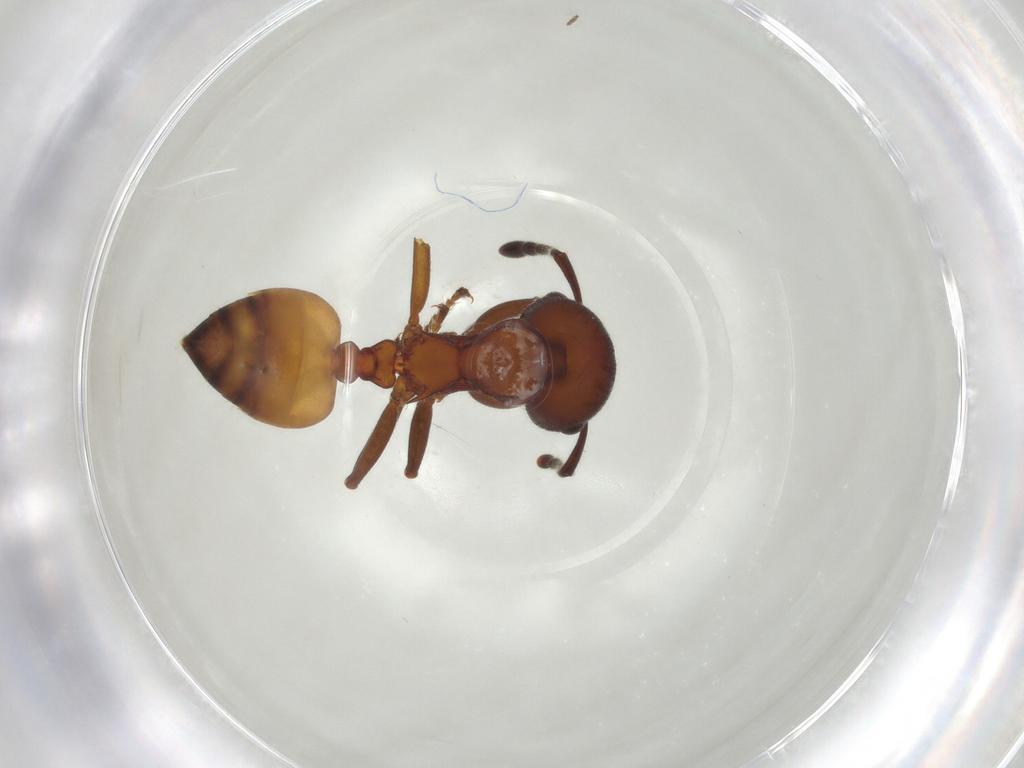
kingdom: Animalia
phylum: Arthropoda
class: Insecta
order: Hymenoptera
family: Formicidae
